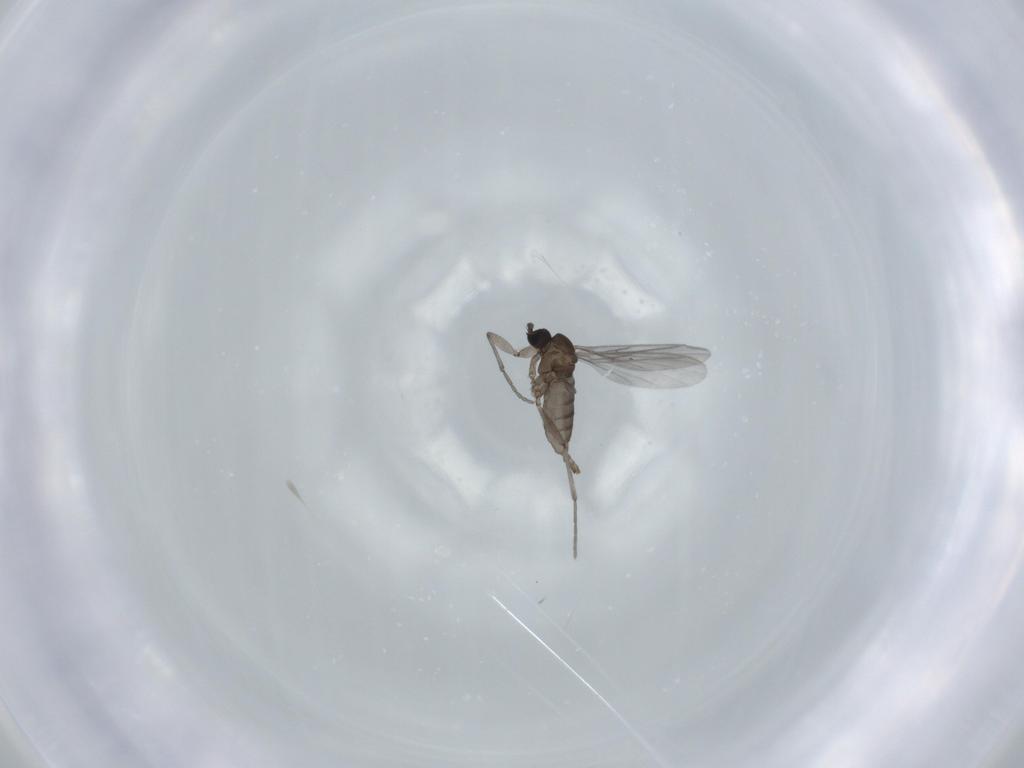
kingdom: Animalia
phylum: Arthropoda
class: Insecta
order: Diptera
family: Sciaridae
